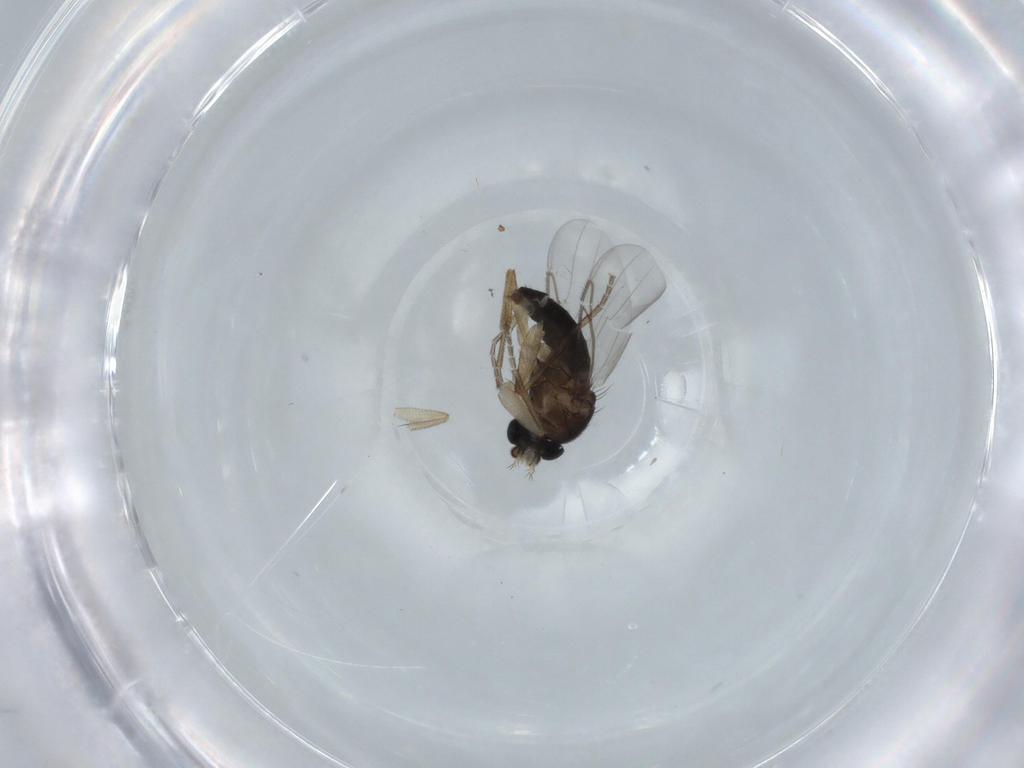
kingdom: Animalia
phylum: Arthropoda
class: Insecta
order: Diptera
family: Phoridae
